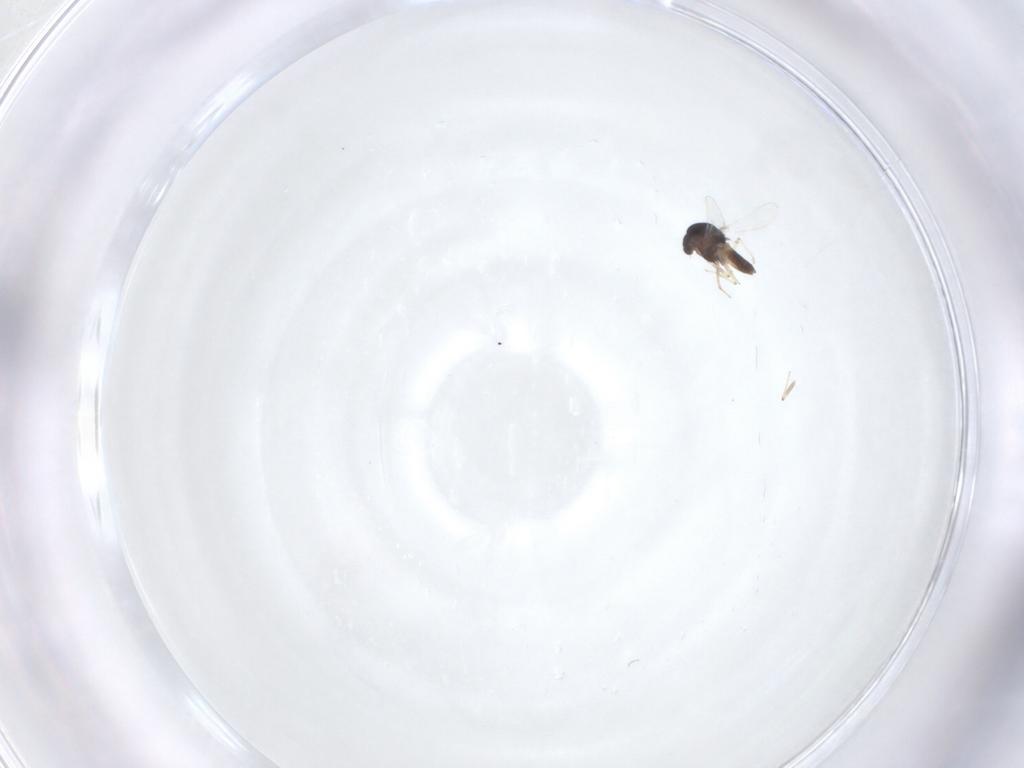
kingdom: Animalia
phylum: Arthropoda
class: Insecta
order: Diptera
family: Chironomidae
